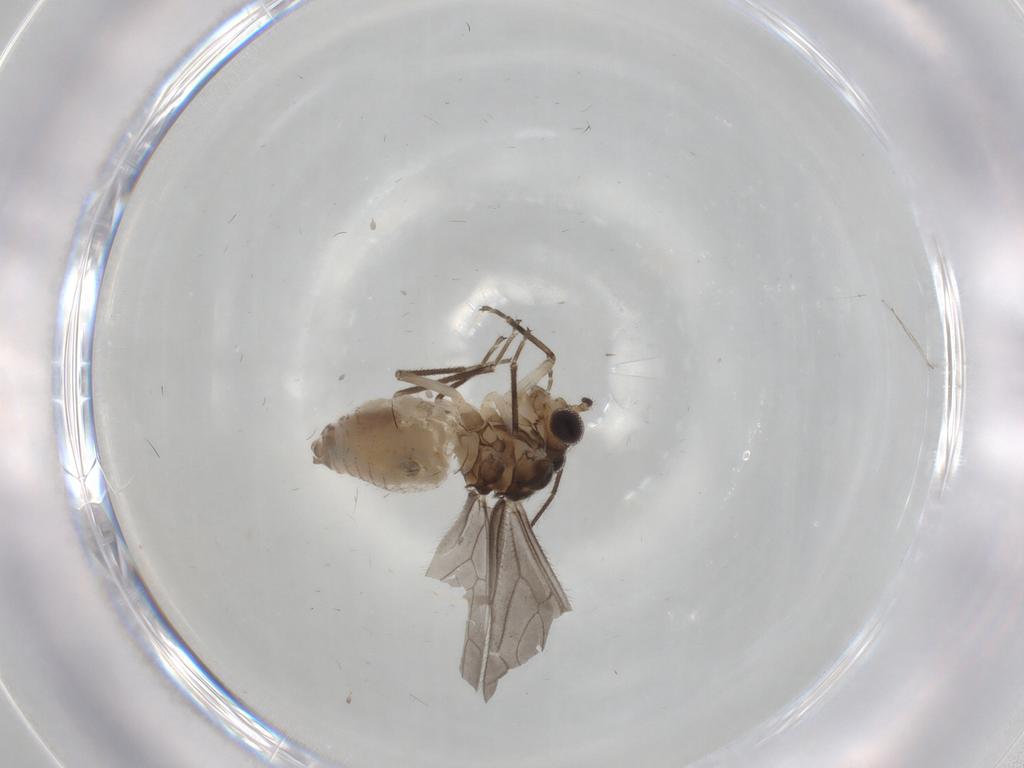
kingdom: Animalia
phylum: Arthropoda
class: Insecta
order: Psocodea
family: Caeciliusidae
